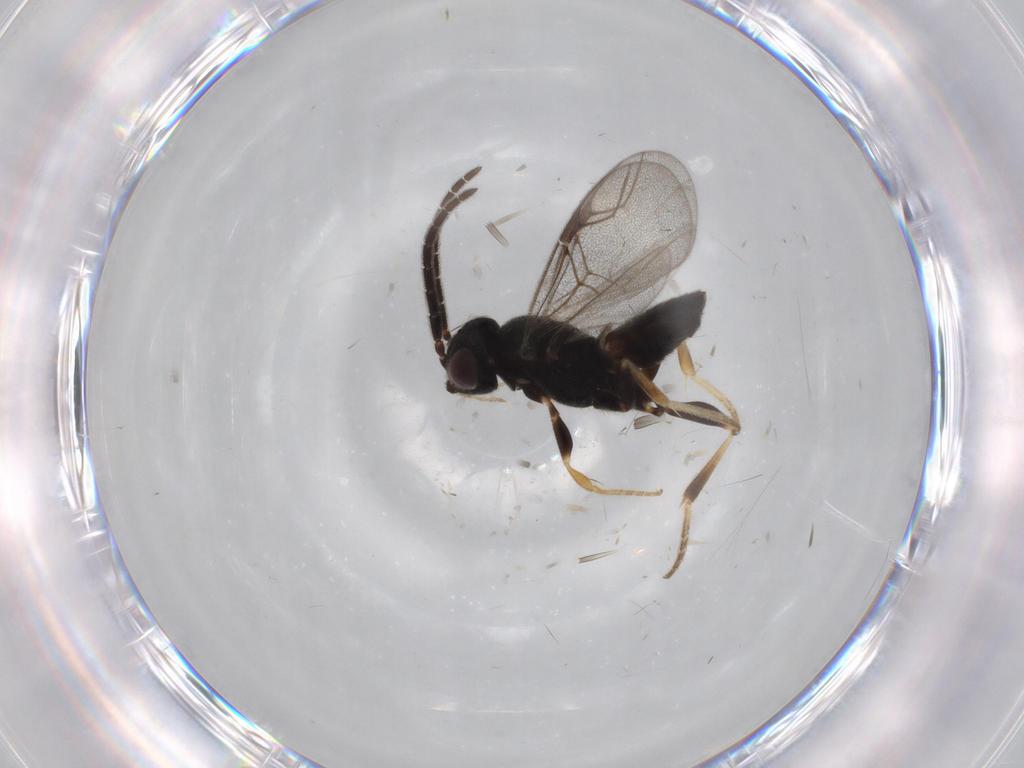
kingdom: Animalia
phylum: Arthropoda
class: Insecta
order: Hymenoptera
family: Dryinidae
